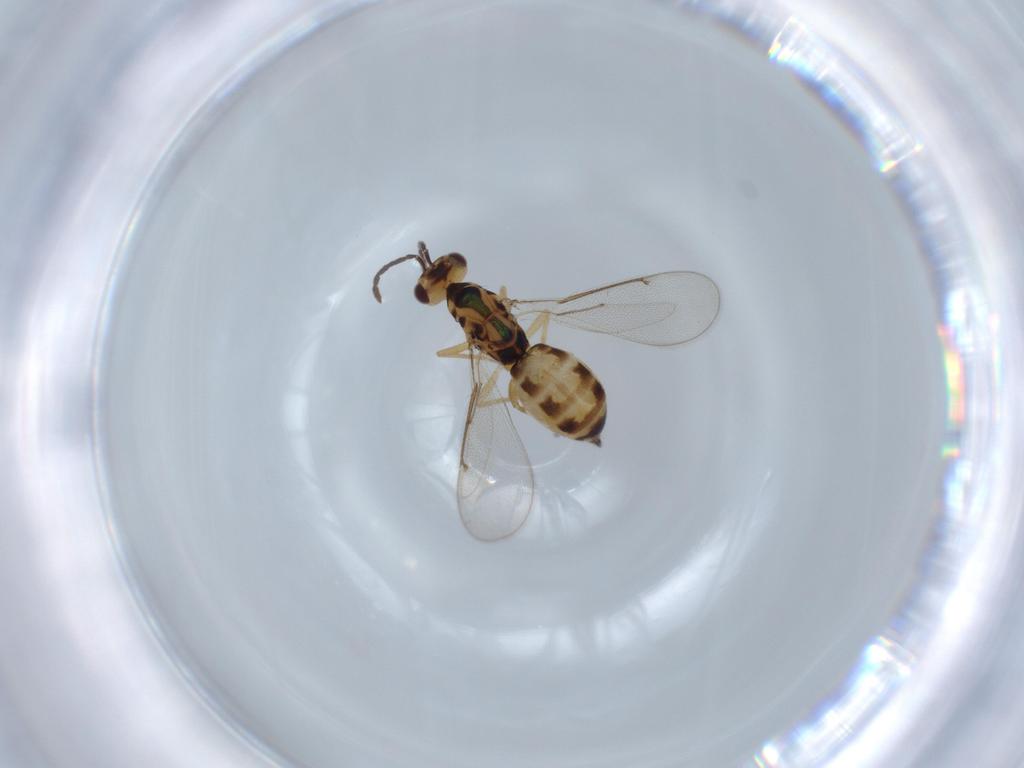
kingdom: Animalia
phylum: Arthropoda
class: Insecta
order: Hymenoptera
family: Eulophidae
